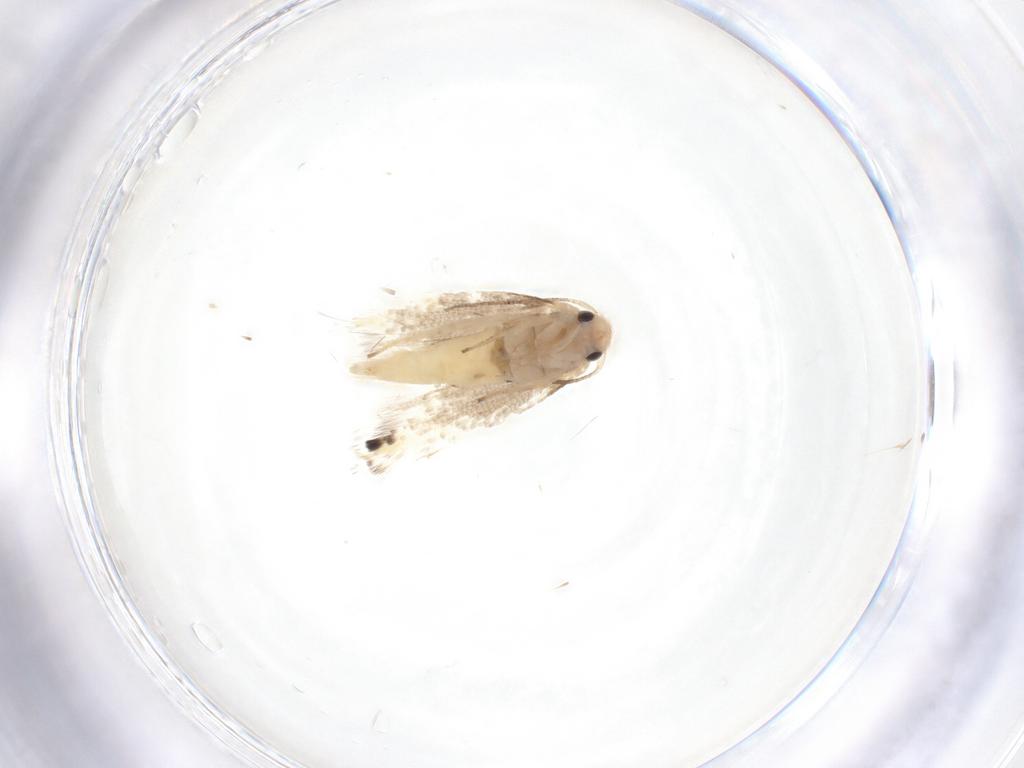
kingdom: Animalia
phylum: Arthropoda
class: Insecta
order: Lepidoptera
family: Lyonetiidae
